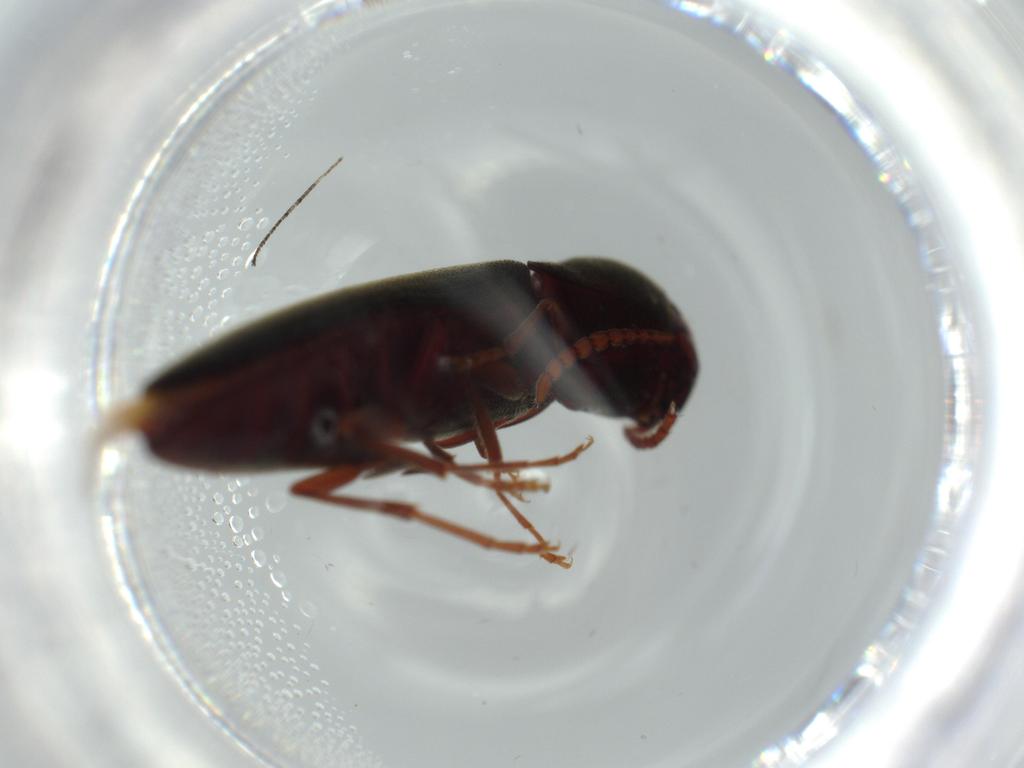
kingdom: Animalia
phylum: Arthropoda
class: Insecta
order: Coleoptera
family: Eucnemidae
